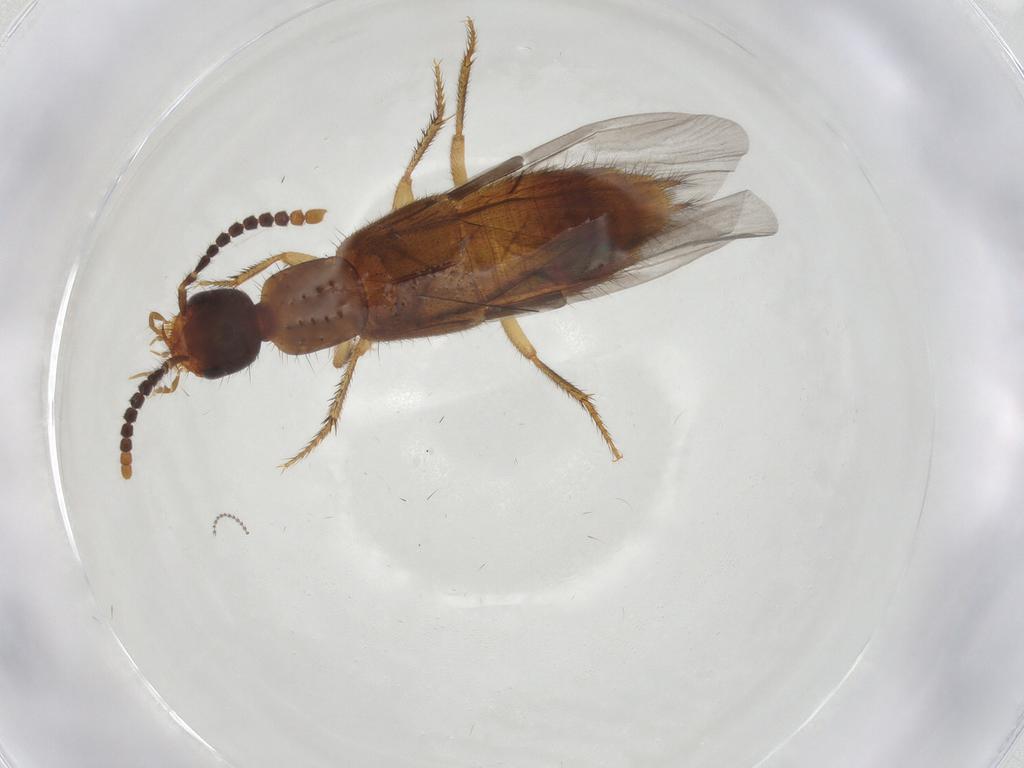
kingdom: Animalia
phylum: Arthropoda
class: Insecta
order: Coleoptera
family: Staphylinidae
